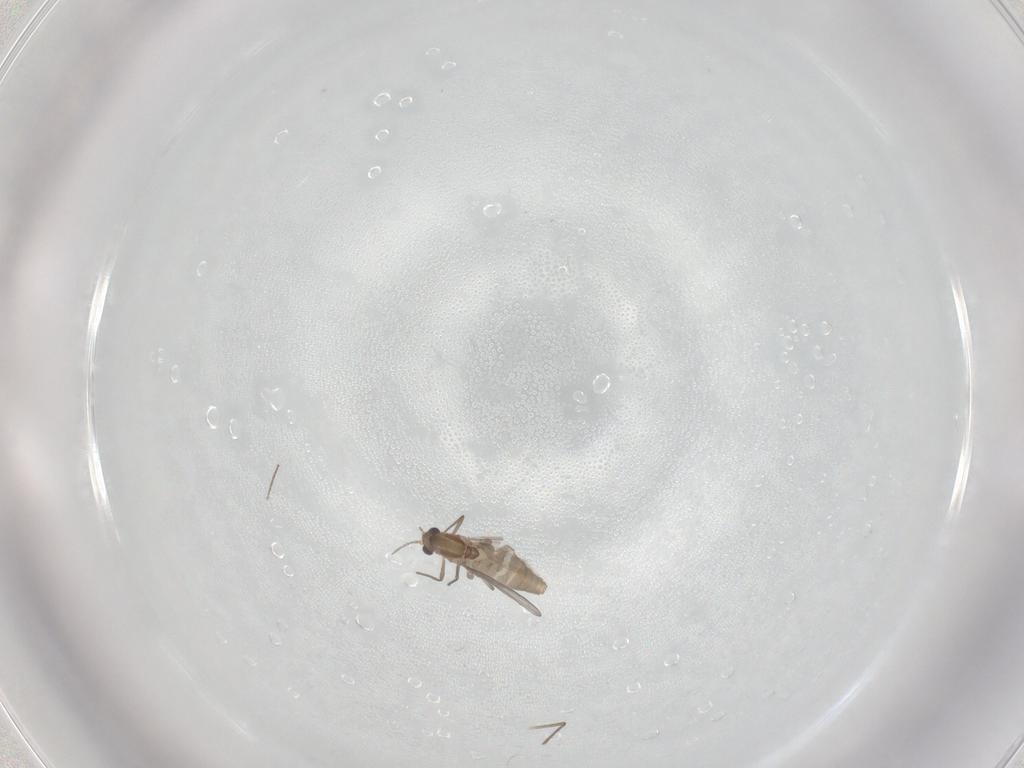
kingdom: Animalia
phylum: Arthropoda
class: Insecta
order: Diptera
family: Chironomidae
